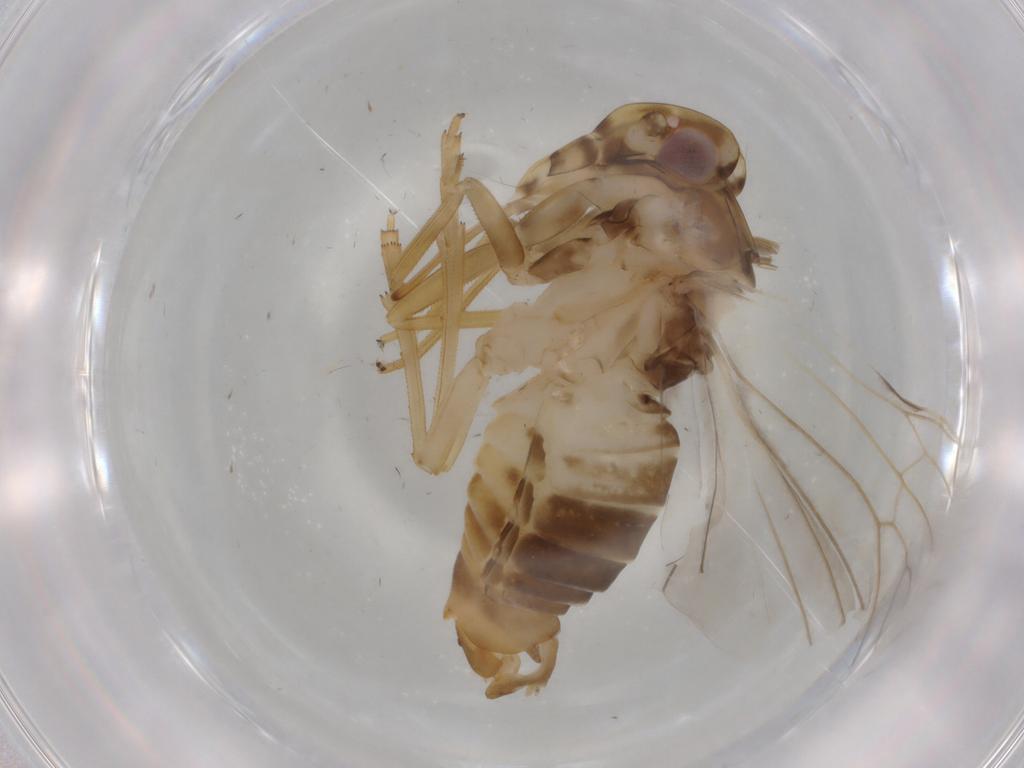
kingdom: Animalia
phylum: Arthropoda
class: Insecta
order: Hemiptera
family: Cixiidae
